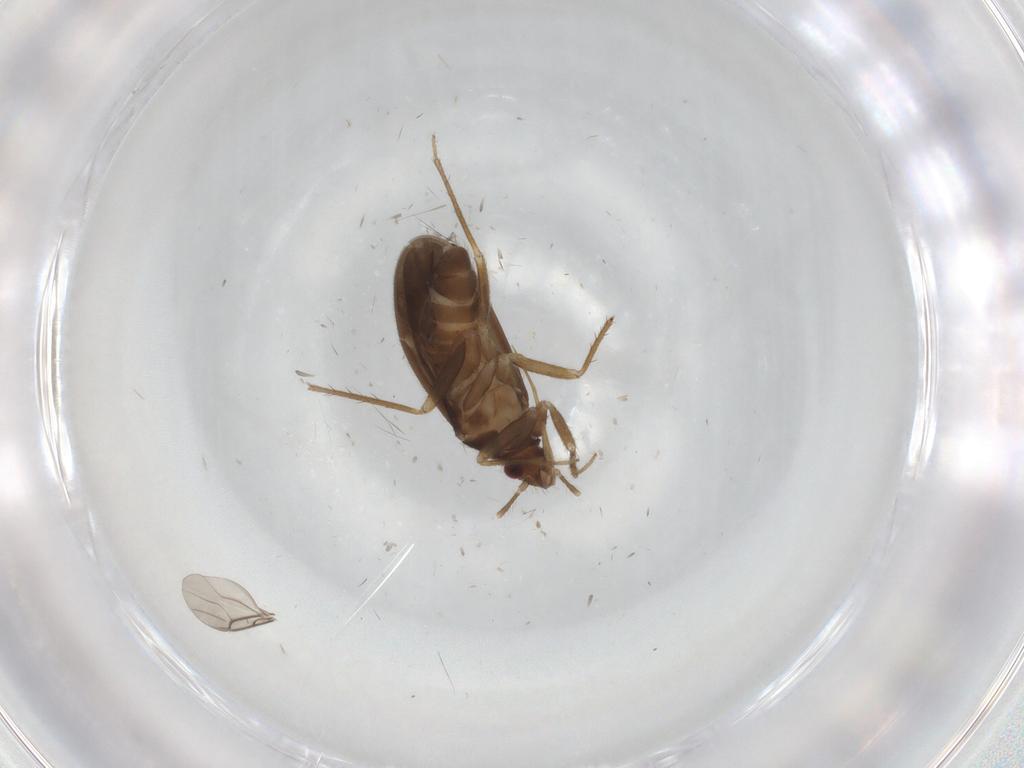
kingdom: Animalia
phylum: Arthropoda
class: Insecta
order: Hemiptera
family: Ceratocombidae
